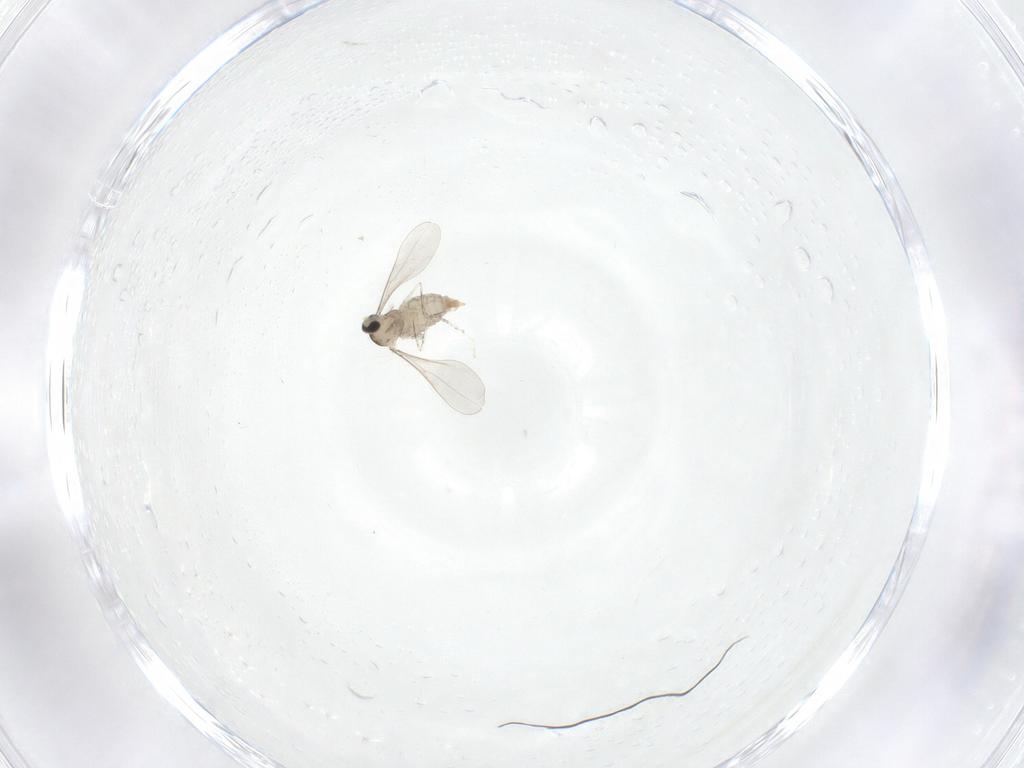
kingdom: Animalia
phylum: Arthropoda
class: Insecta
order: Diptera
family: Cecidomyiidae
